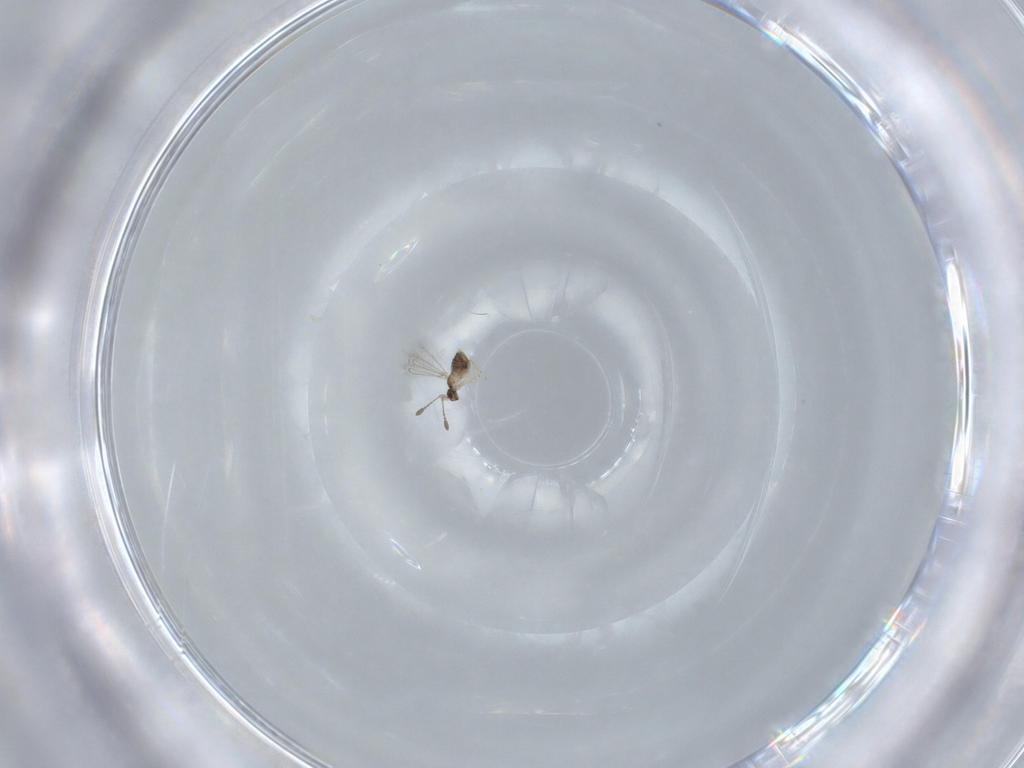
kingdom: Animalia
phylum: Arthropoda
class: Insecta
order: Hymenoptera
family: Mymaridae
